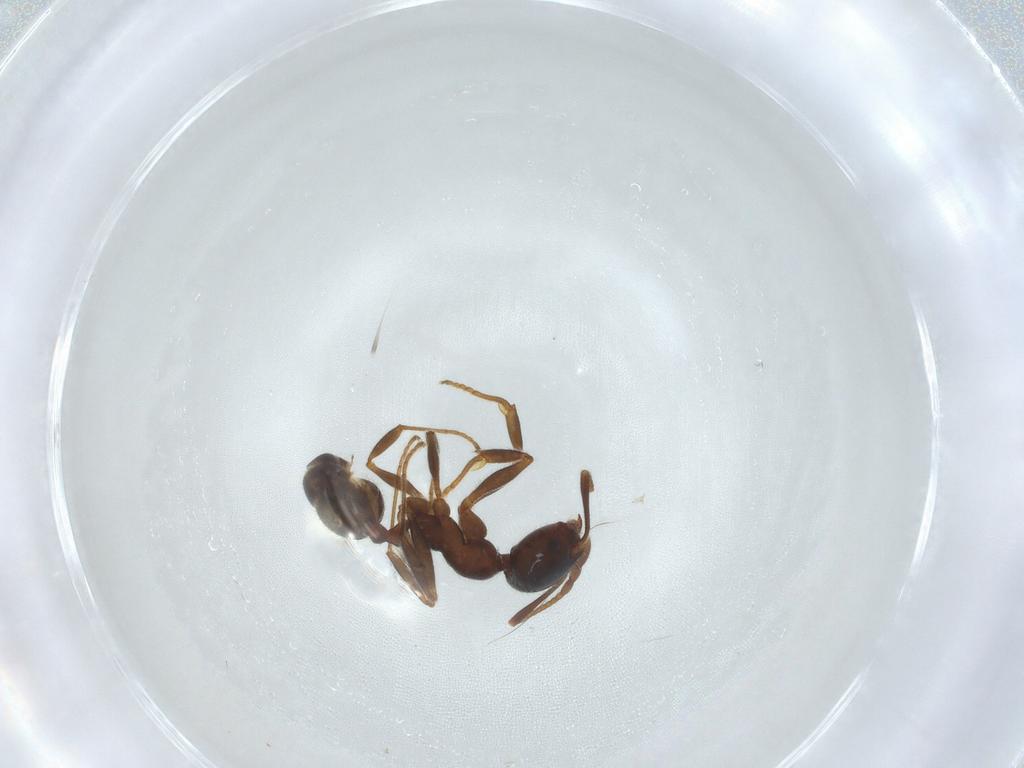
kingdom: Animalia
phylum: Arthropoda
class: Insecta
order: Hymenoptera
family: Formicidae
